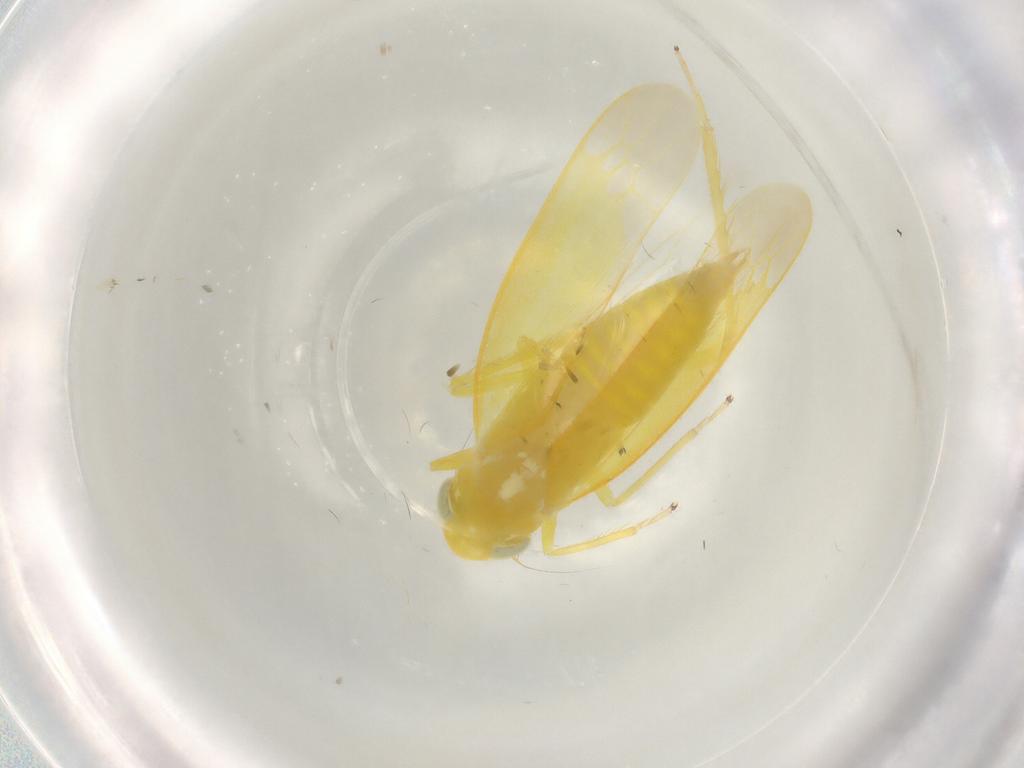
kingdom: Animalia
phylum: Arthropoda
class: Insecta
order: Hemiptera
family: Cicadellidae
